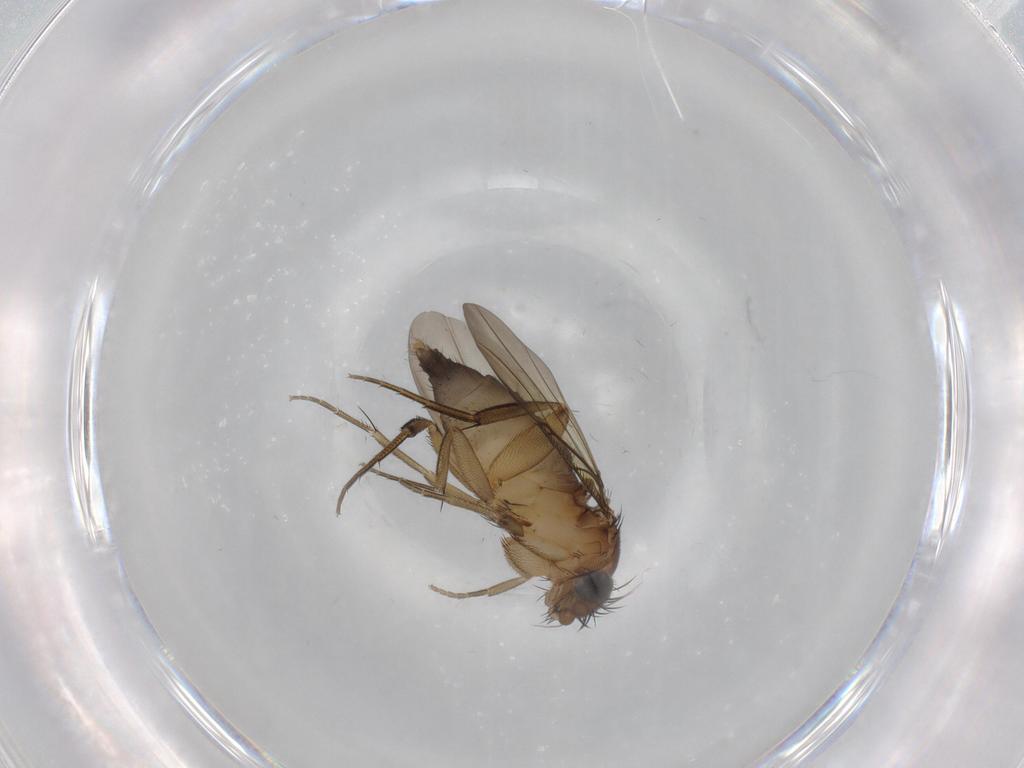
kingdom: Animalia
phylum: Arthropoda
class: Insecta
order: Diptera
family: Phoridae
